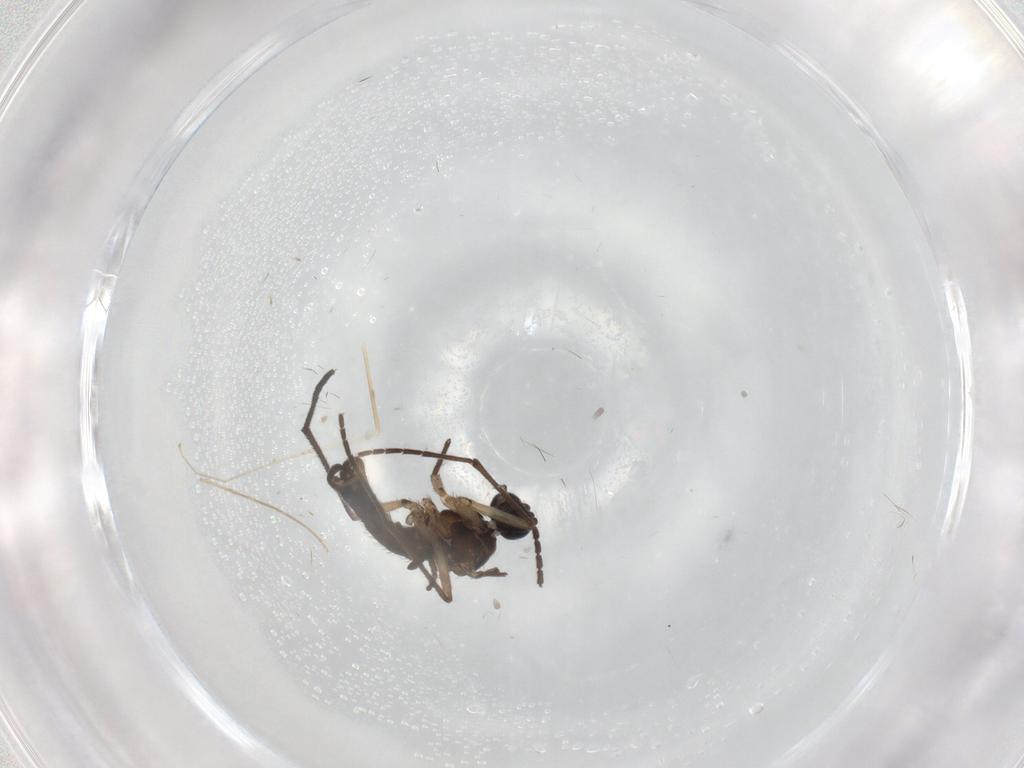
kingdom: Animalia
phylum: Arthropoda
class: Insecta
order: Diptera
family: Sciaridae
